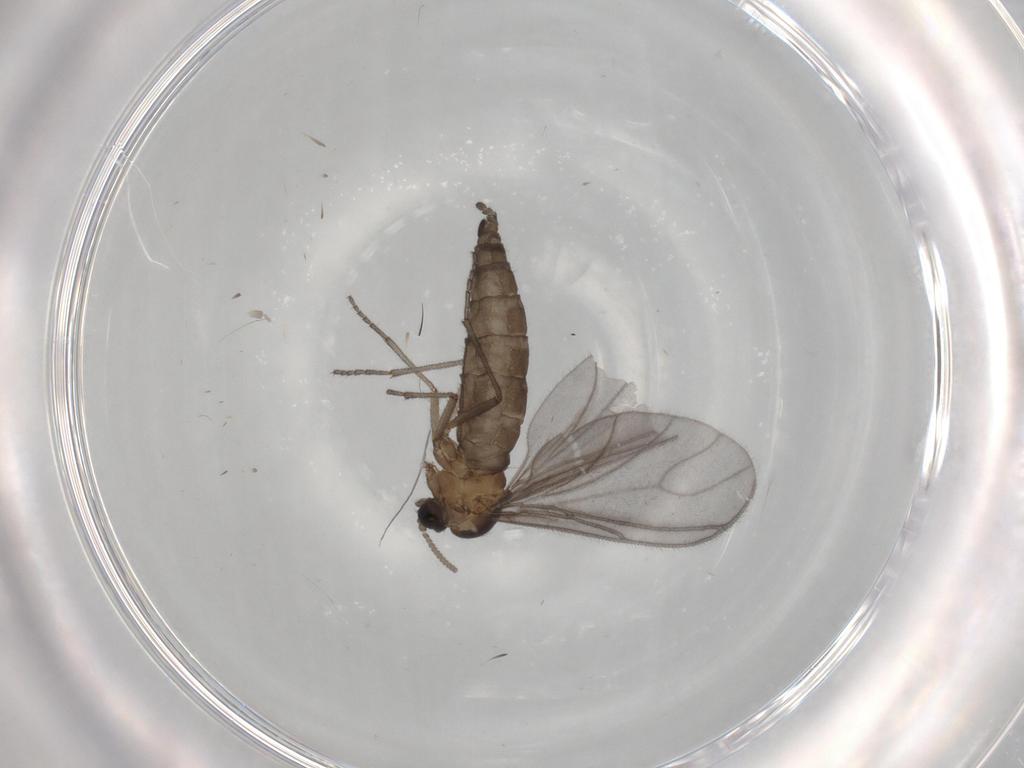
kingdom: Animalia
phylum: Arthropoda
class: Insecta
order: Diptera
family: Sciaridae
